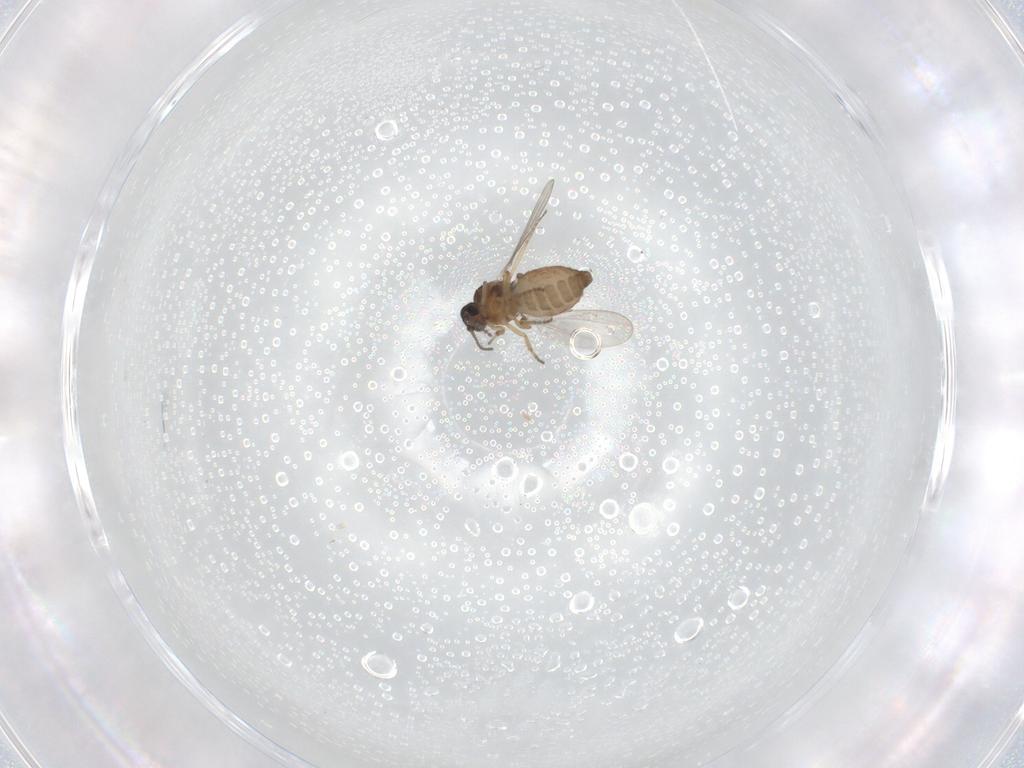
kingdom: Animalia
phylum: Arthropoda
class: Insecta
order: Diptera
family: Ceratopogonidae
